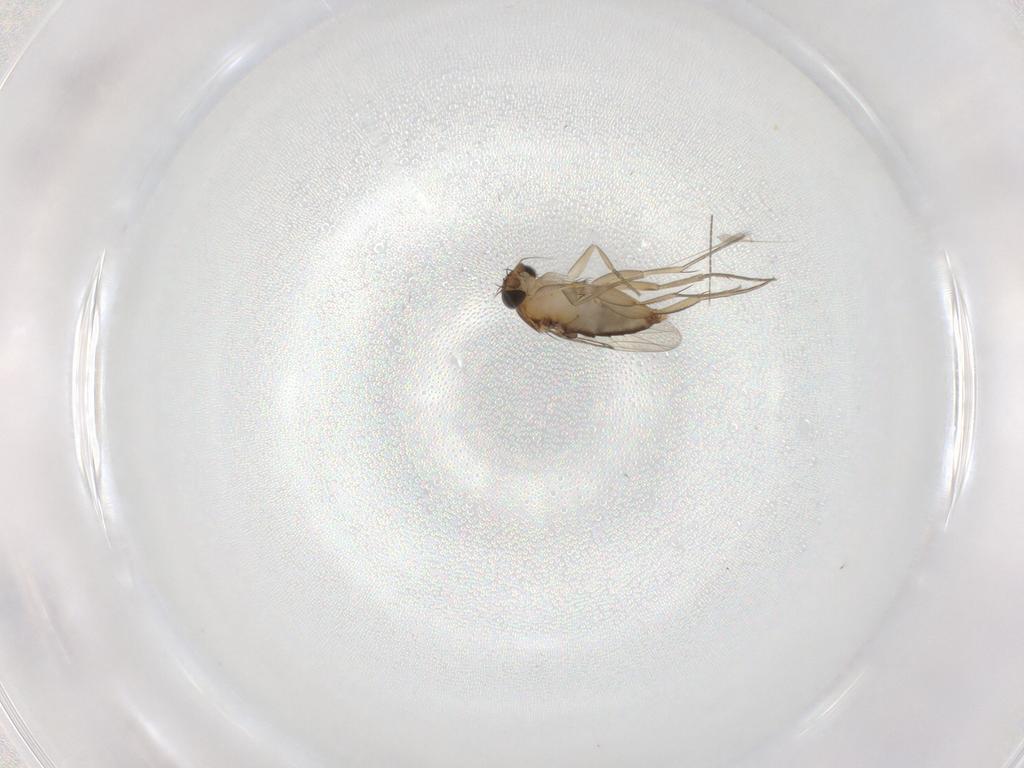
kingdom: Animalia
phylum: Arthropoda
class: Insecta
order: Diptera
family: Phoridae
